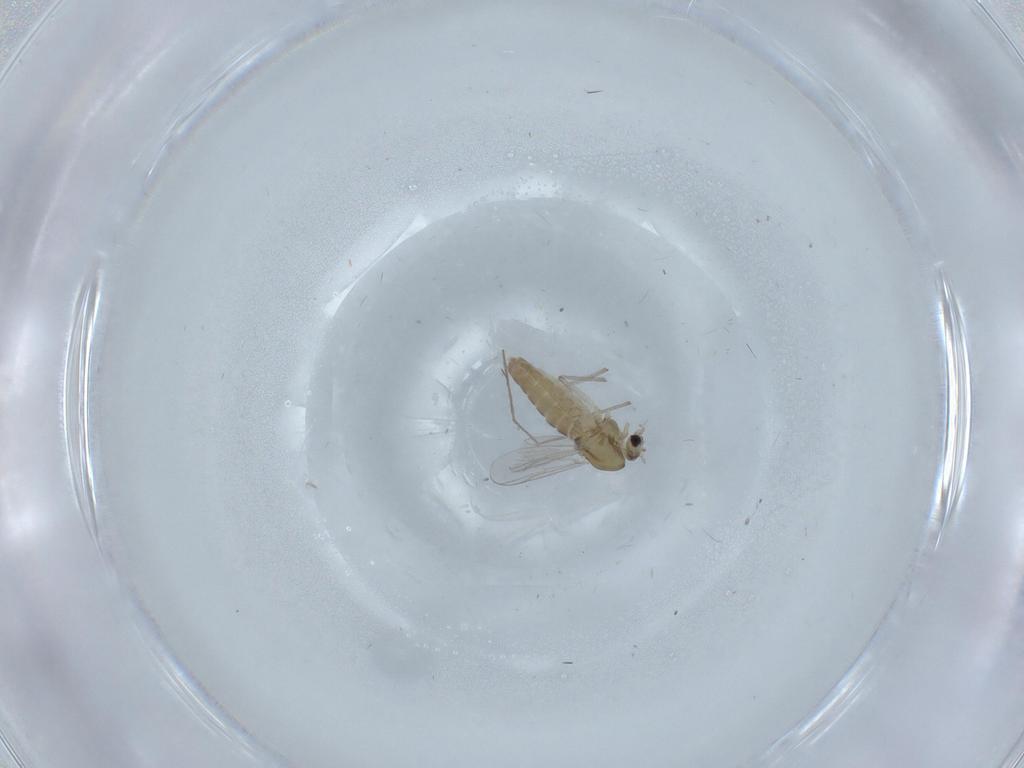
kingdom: Animalia
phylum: Arthropoda
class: Insecta
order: Diptera
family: Chironomidae
